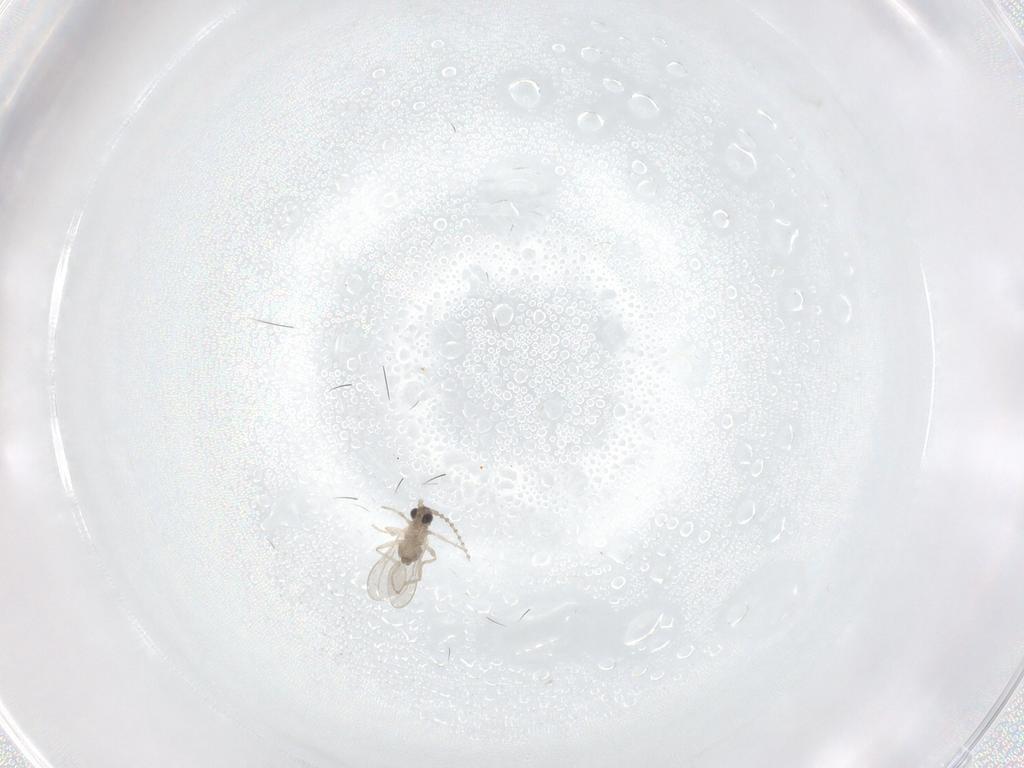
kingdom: Animalia
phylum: Arthropoda
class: Insecta
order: Diptera
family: Cecidomyiidae
